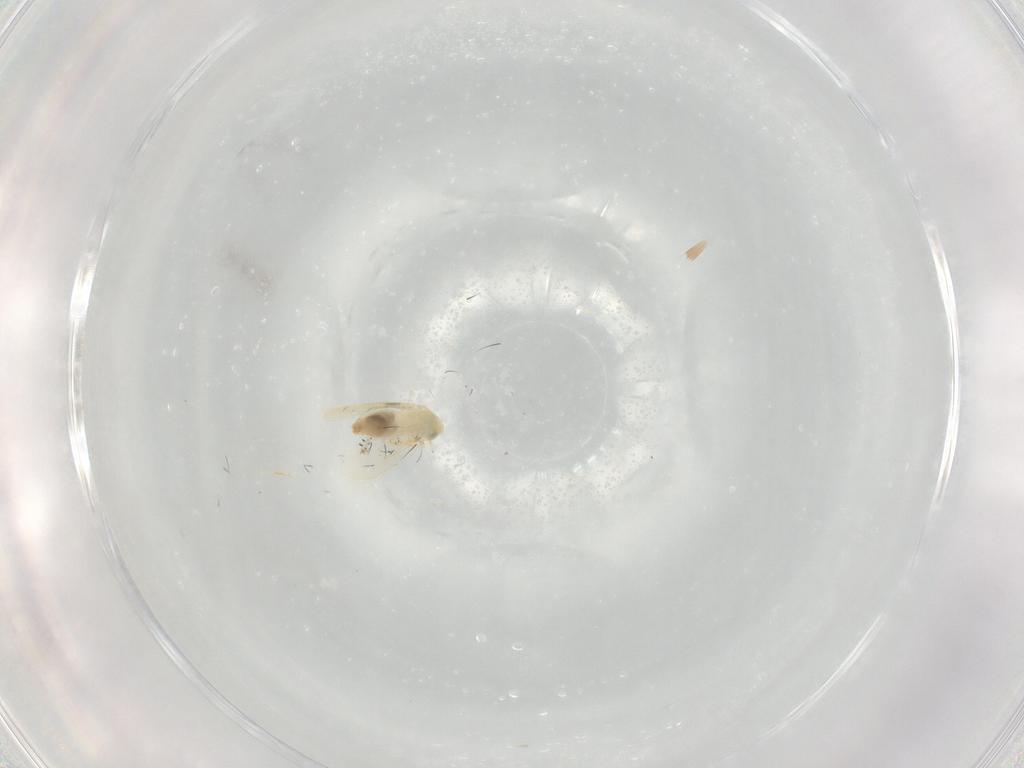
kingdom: Animalia
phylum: Arthropoda
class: Insecta
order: Hemiptera
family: Aleyrodidae
